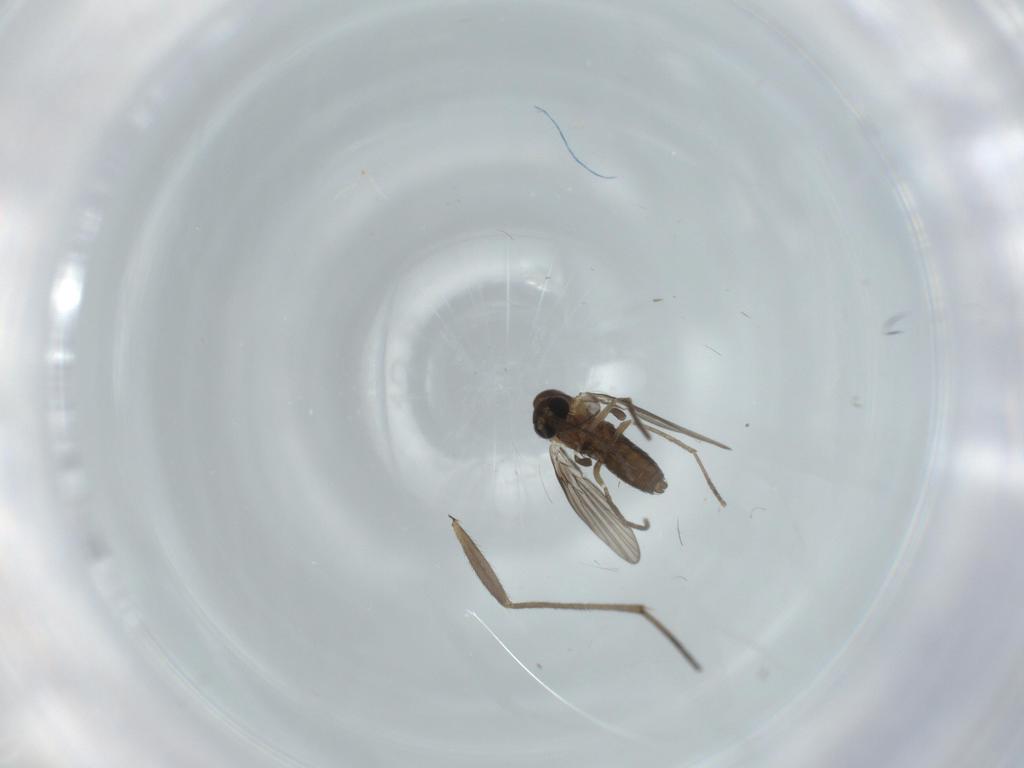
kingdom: Animalia
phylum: Arthropoda
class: Insecta
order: Diptera
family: Psychodidae
